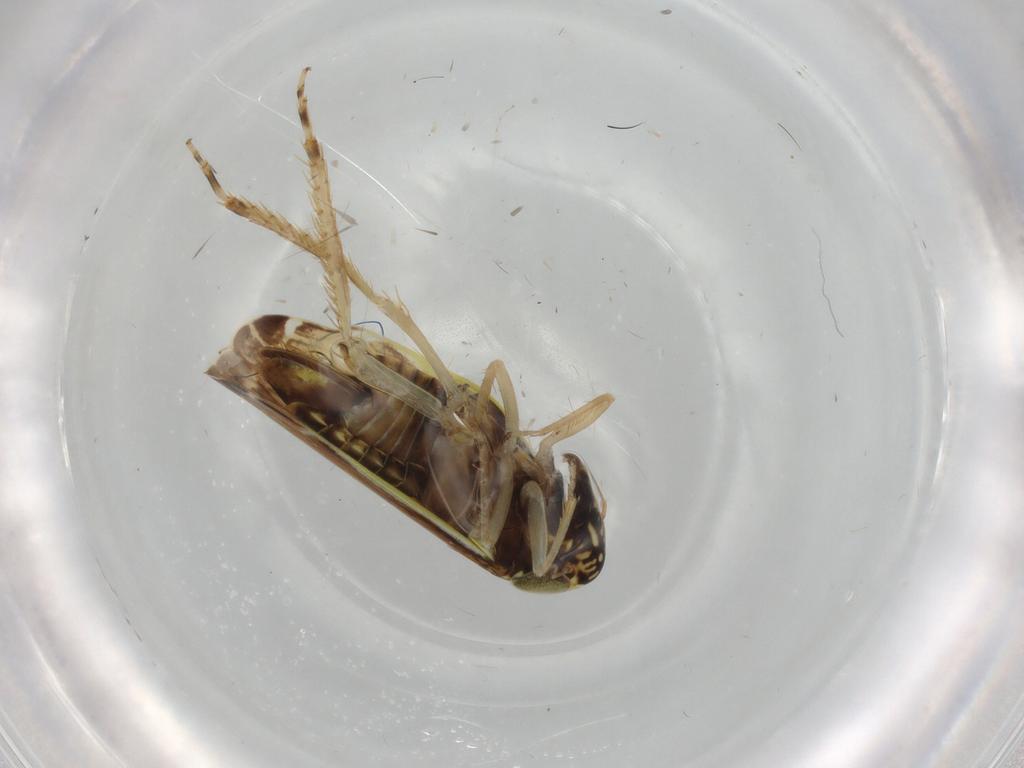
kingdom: Animalia
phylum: Arthropoda
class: Insecta
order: Hemiptera
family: Cicadellidae
